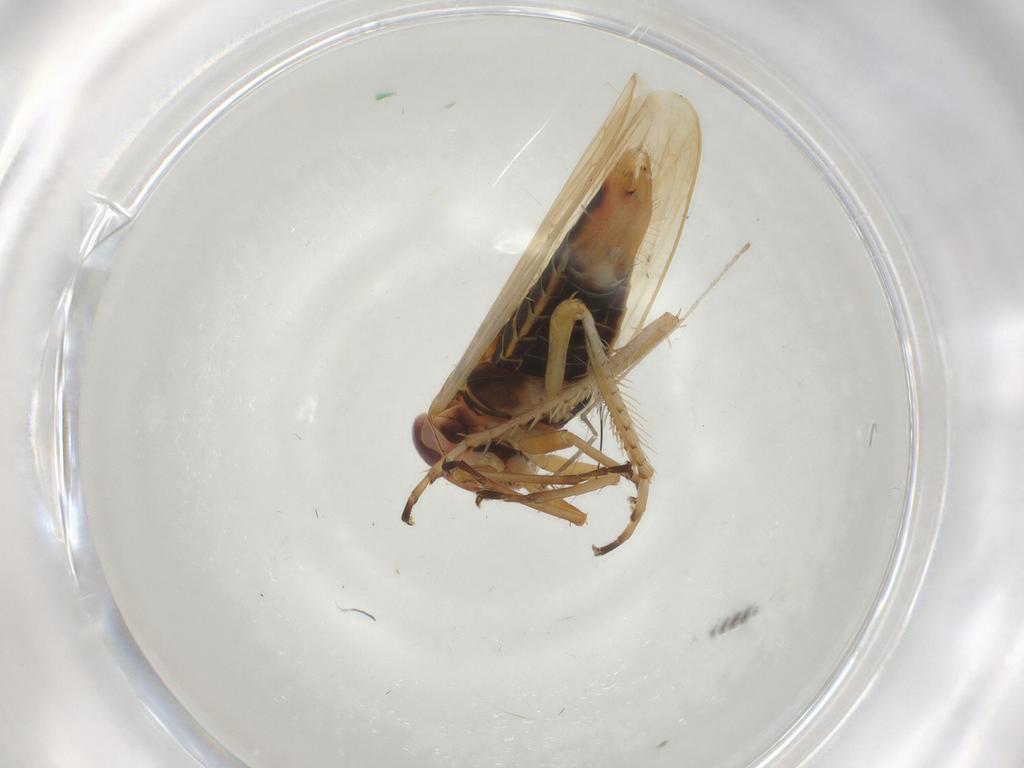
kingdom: Animalia
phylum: Arthropoda
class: Insecta
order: Hemiptera
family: Cicadellidae
